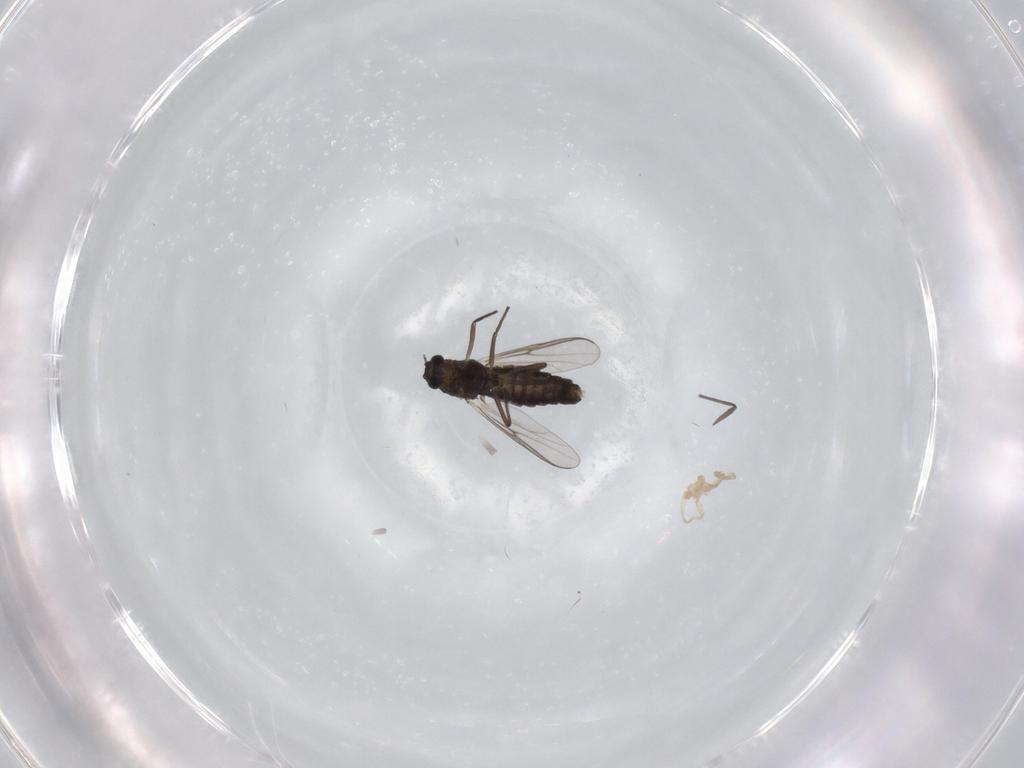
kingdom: Animalia
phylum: Arthropoda
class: Insecta
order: Diptera
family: Chironomidae
